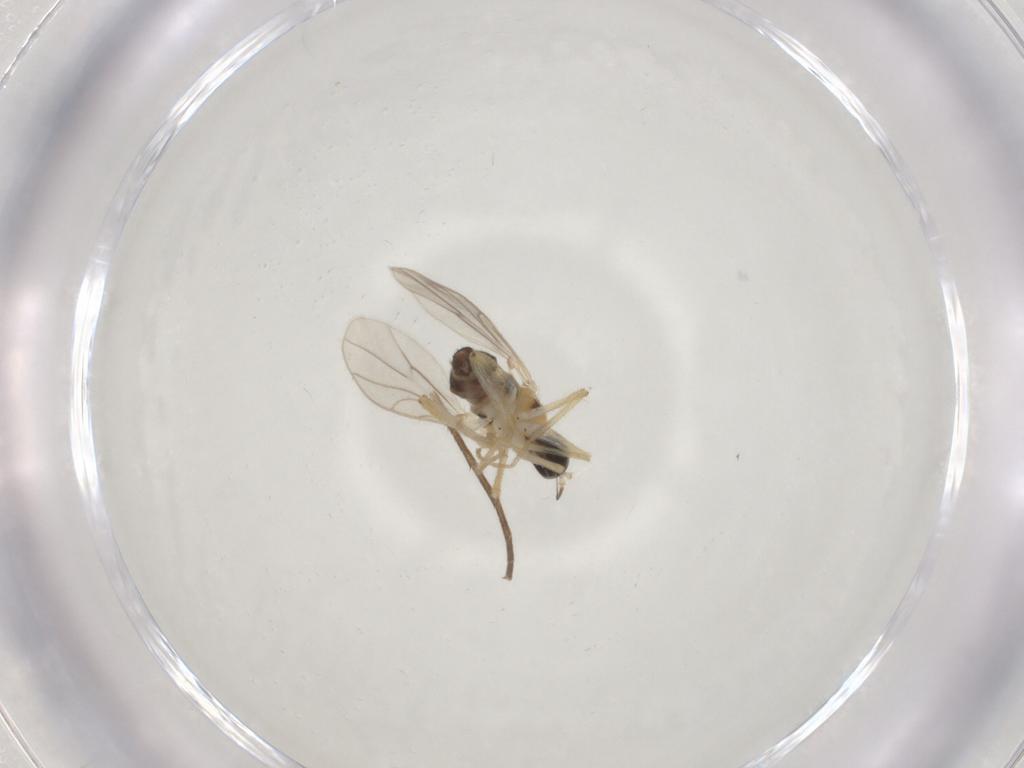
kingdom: Animalia
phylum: Arthropoda
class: Insecta
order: Diptera
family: Hybotidae
